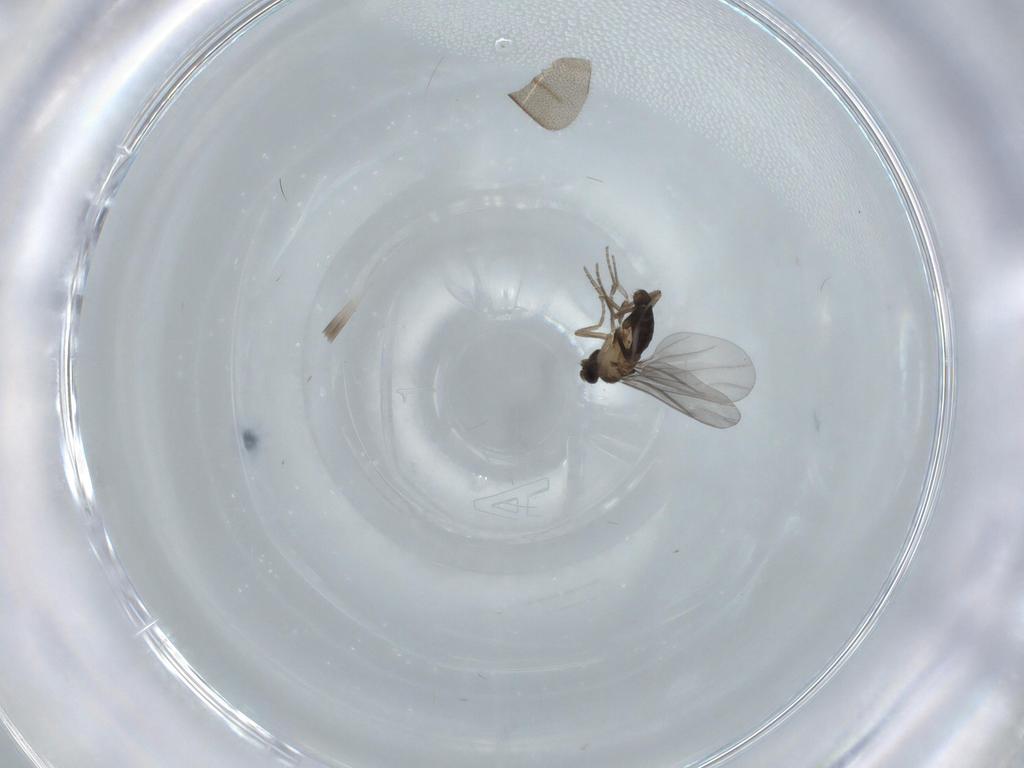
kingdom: Animalia
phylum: Arthropoda
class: Insecta
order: Diptera
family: Phoridae
